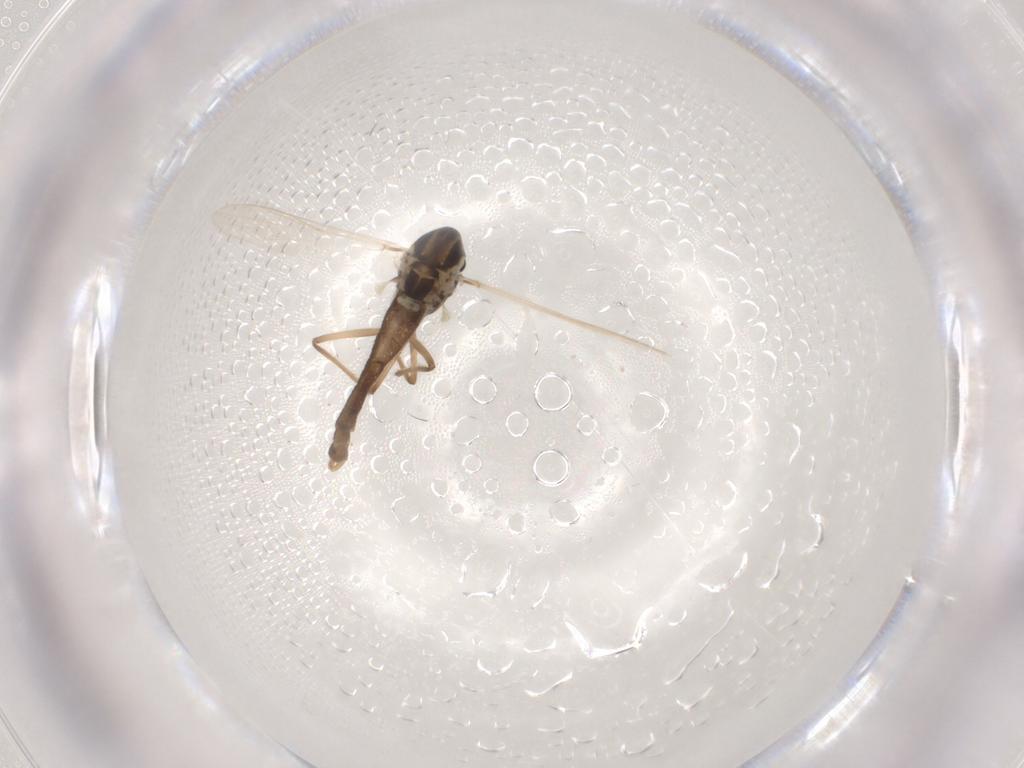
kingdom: Animalia
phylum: Arthropoda
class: Insecta
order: Diptera
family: Chironomidae
